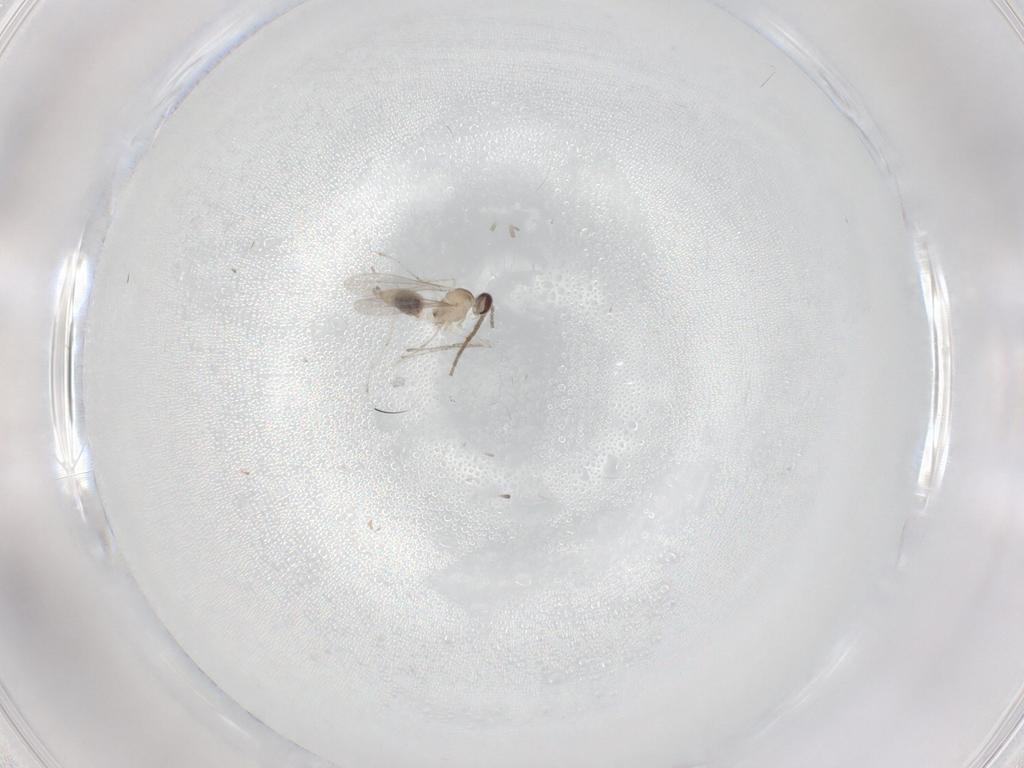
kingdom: Animalia
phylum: Arthropoda
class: Insecta
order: Diptera
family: Cecidomyiidae
